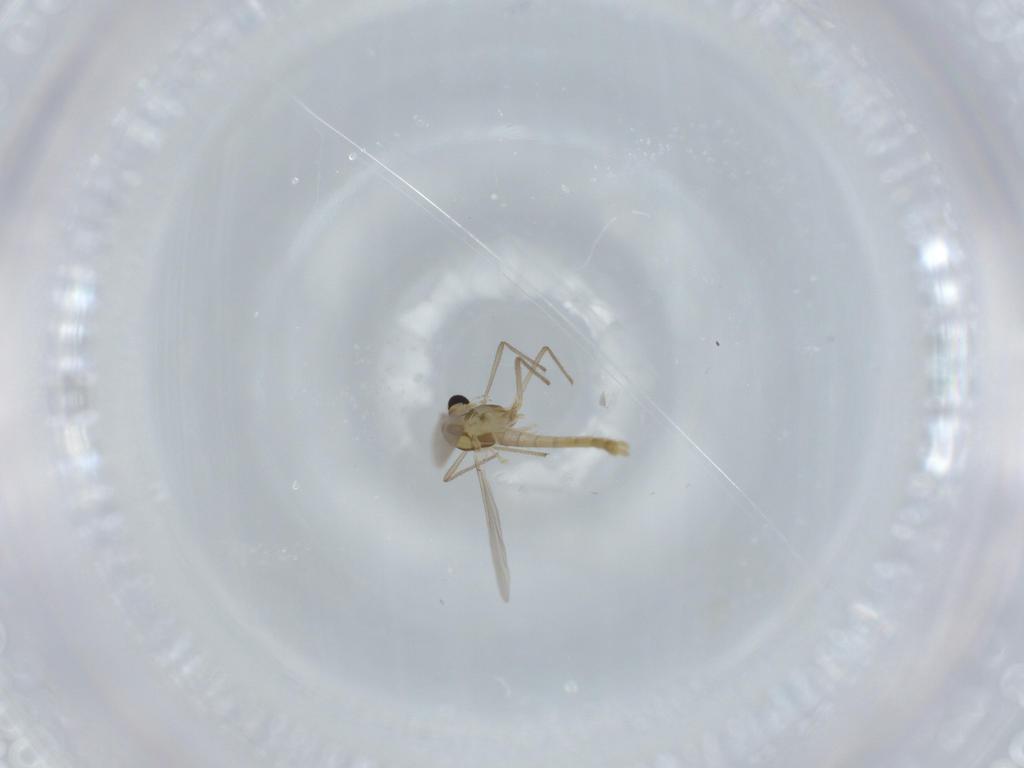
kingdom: Animalia
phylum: Arthropoda
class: Insecta
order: Diptera
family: Chironomidae
